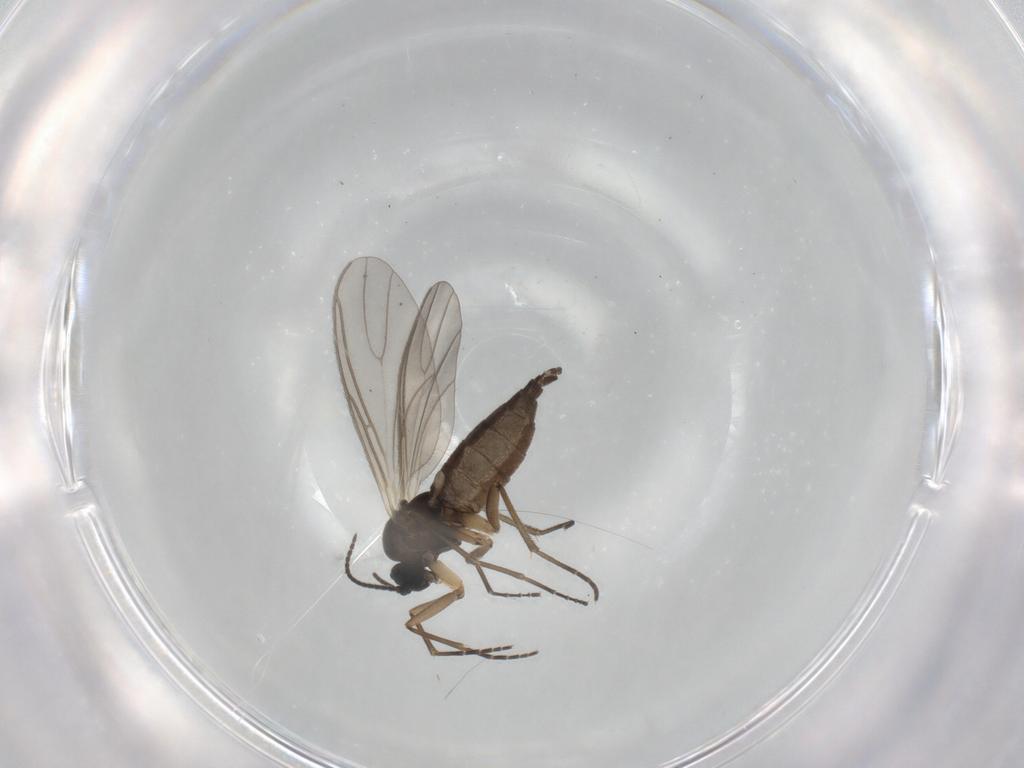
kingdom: Animalia
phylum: Arthropoda
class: Insecta
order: Diptera
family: Sciaridae
